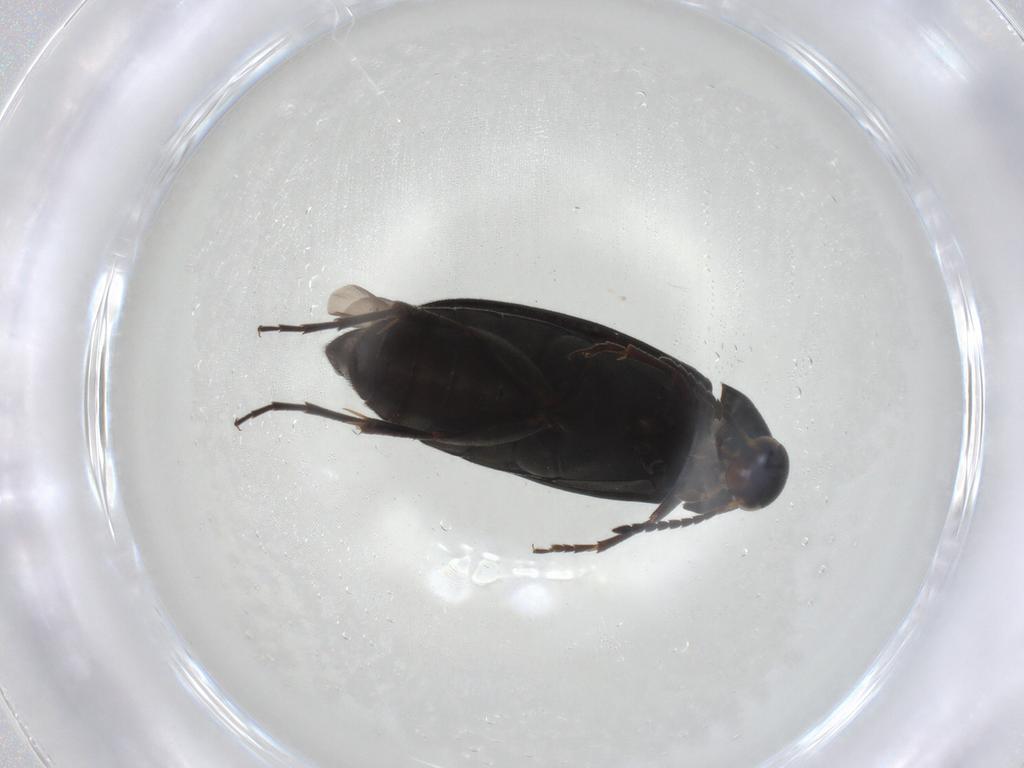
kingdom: Animalia
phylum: Arthropoda
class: Insecta
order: Coleoptera
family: Scraptiidae
